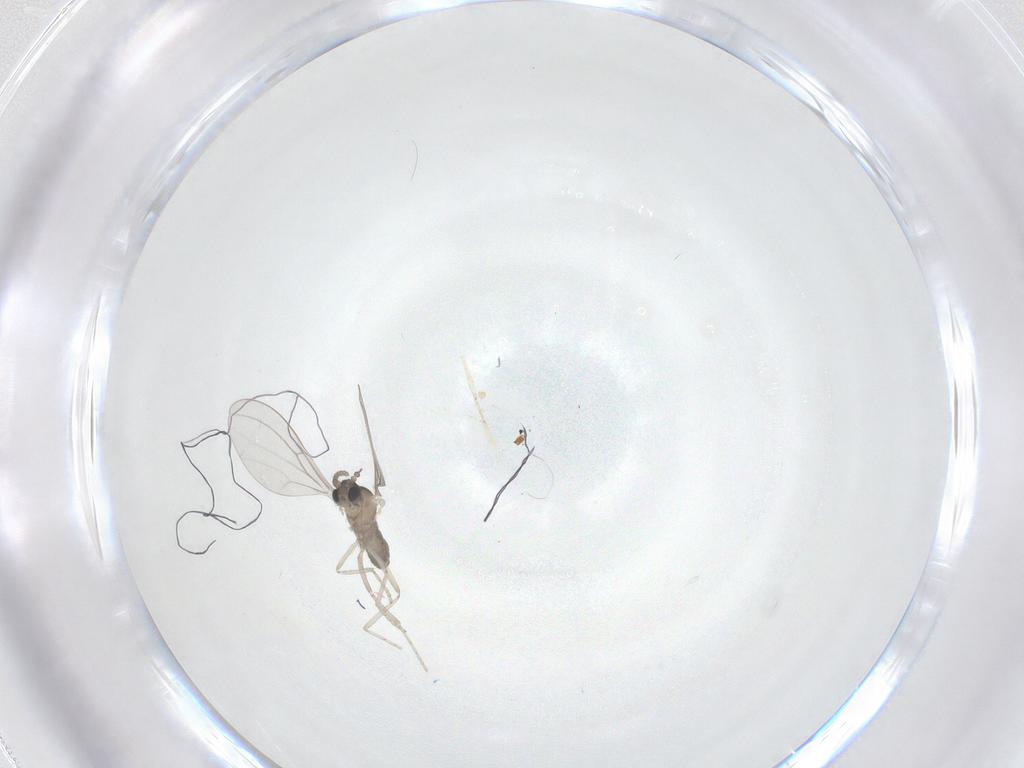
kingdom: Animalia
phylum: Arthropoda
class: Insecta
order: Diptera
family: Cecidomyiidae
